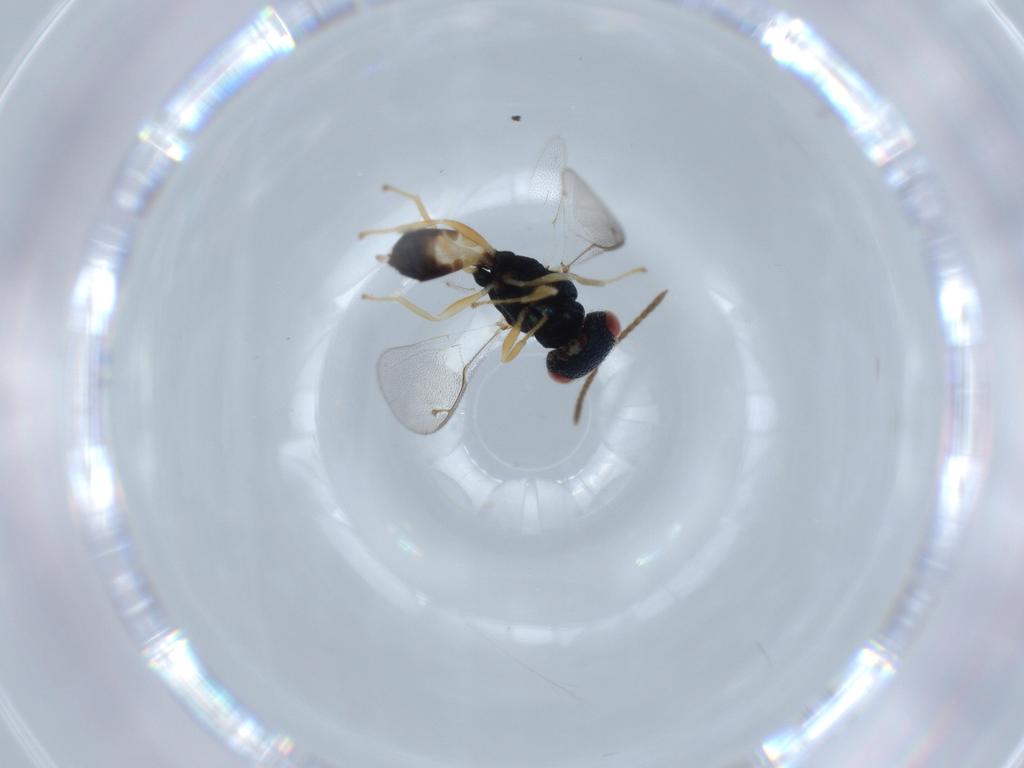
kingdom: Animalia
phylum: Arthropoda
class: Insecta
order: Hymenoptera
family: Pteromalidae
